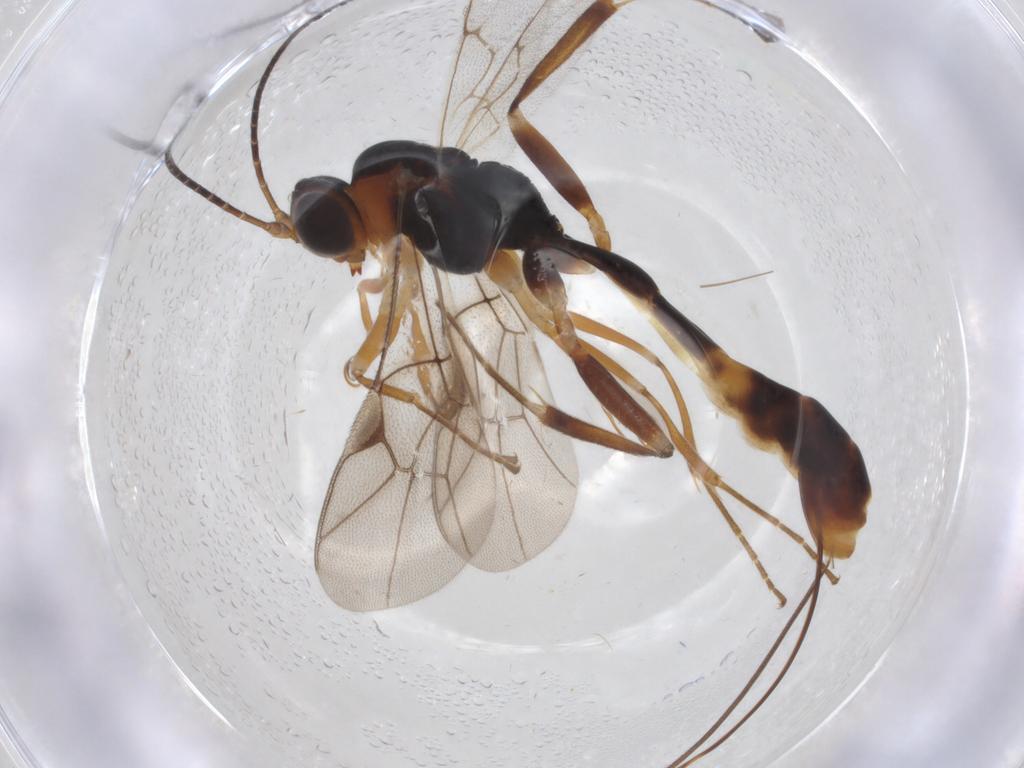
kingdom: Animalia
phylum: Arthropoda
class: Insecta
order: Hymenoptera
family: Ichneumonidae
